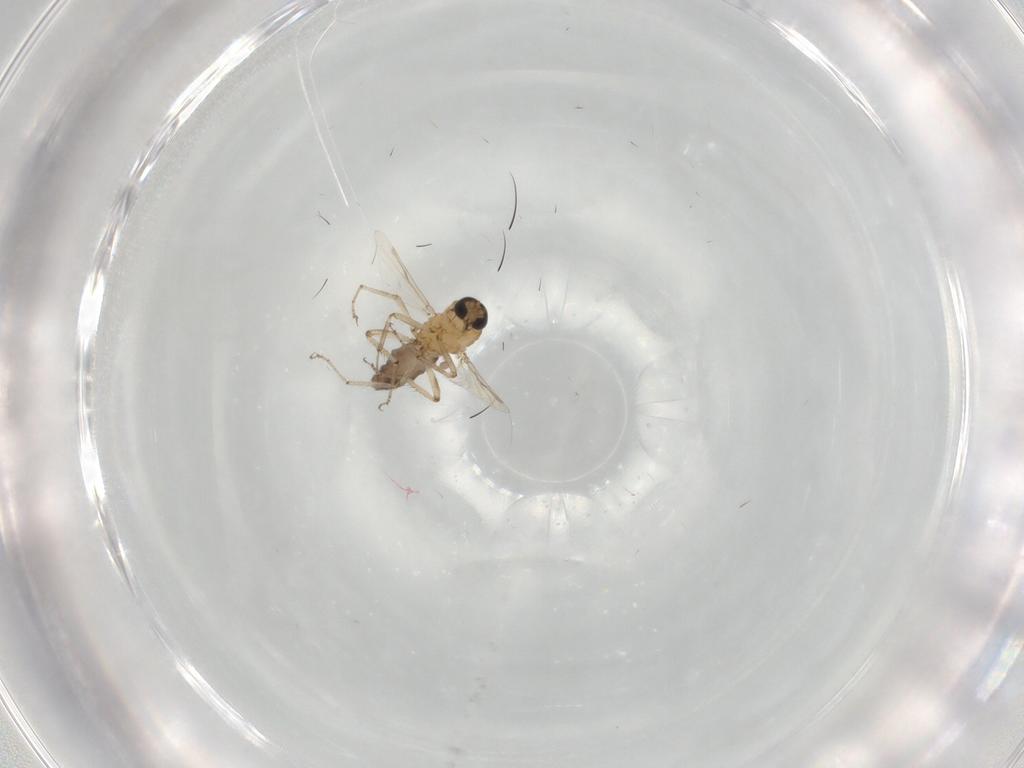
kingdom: Animalia
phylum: Arthropoda
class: Insecta
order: Diptera
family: Ceratopogonidae
